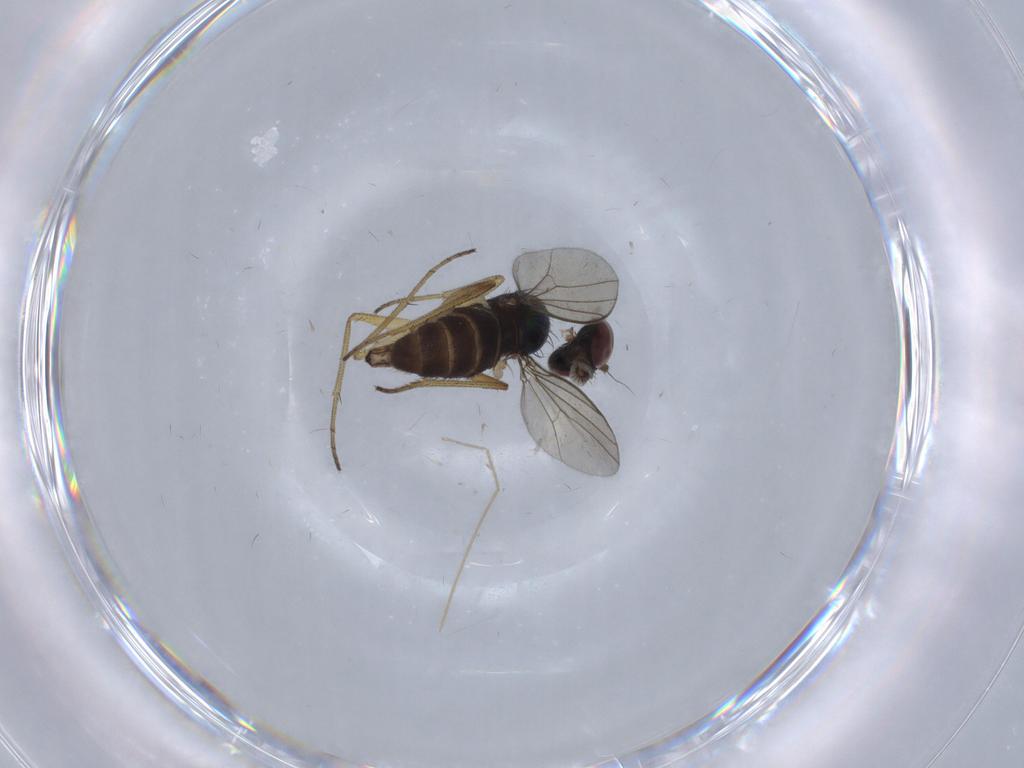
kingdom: Animalia
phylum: Arthropoda
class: Insecta
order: Diptera
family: Dolichopodidae
